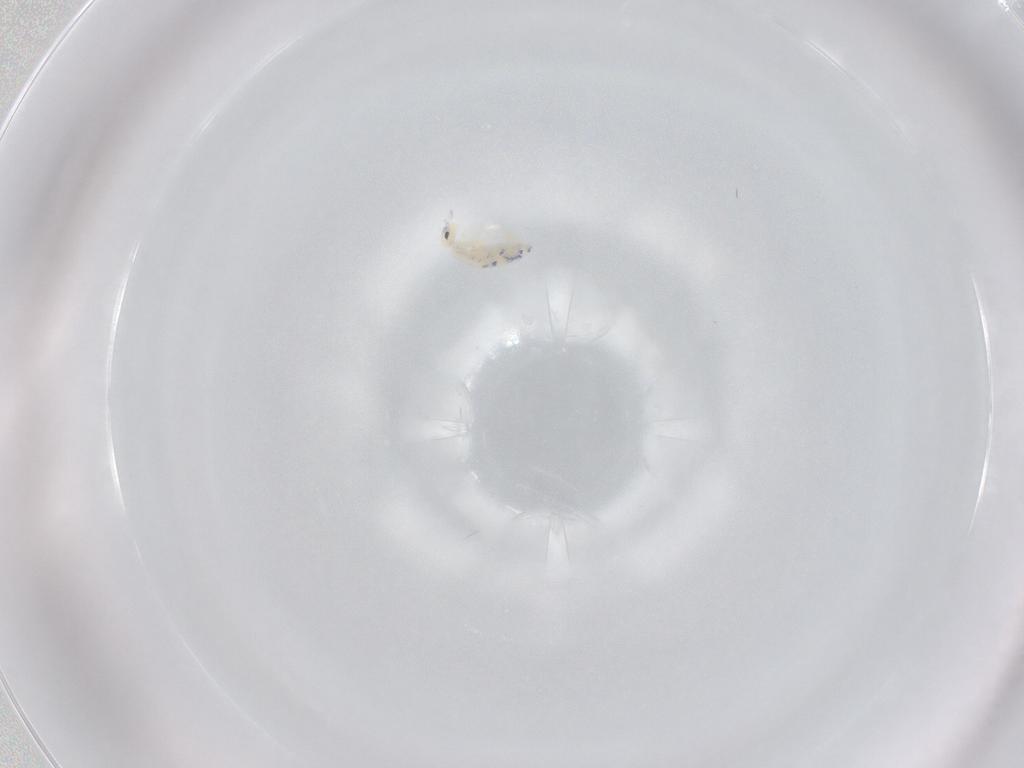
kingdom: Animalia
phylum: Arthropoda
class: Collembola
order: Entomobryomorpha
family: Entomobryidae
